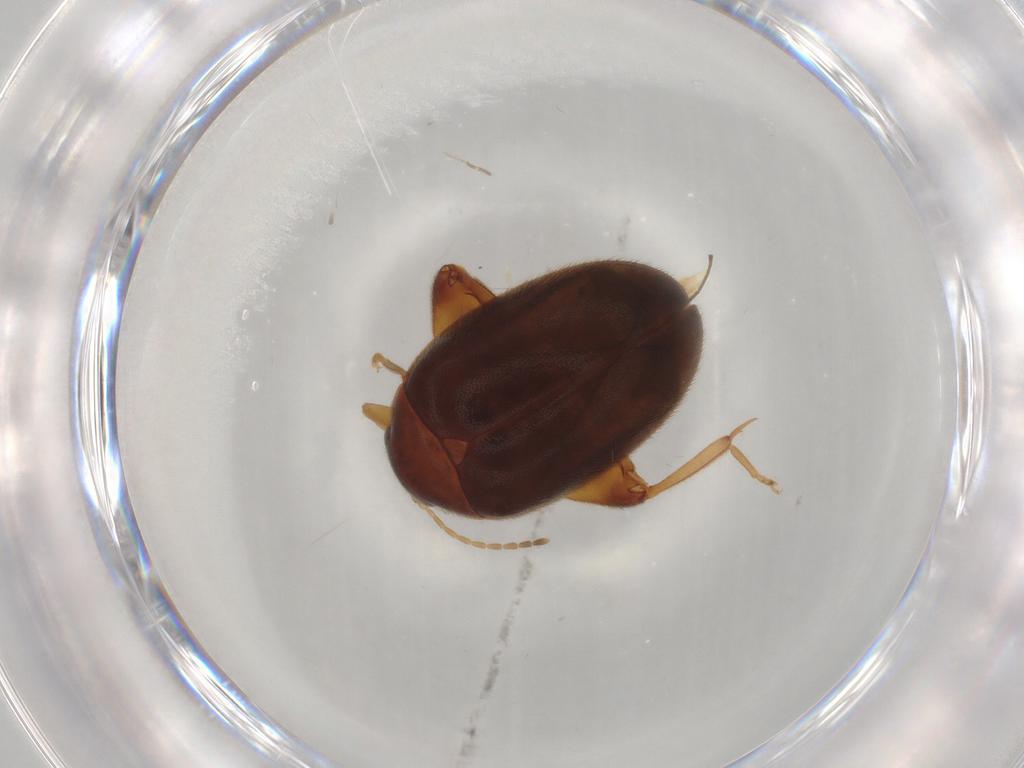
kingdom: Animalia
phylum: Arthropoda
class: Insecta
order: Coleoptera
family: Scirtidae
